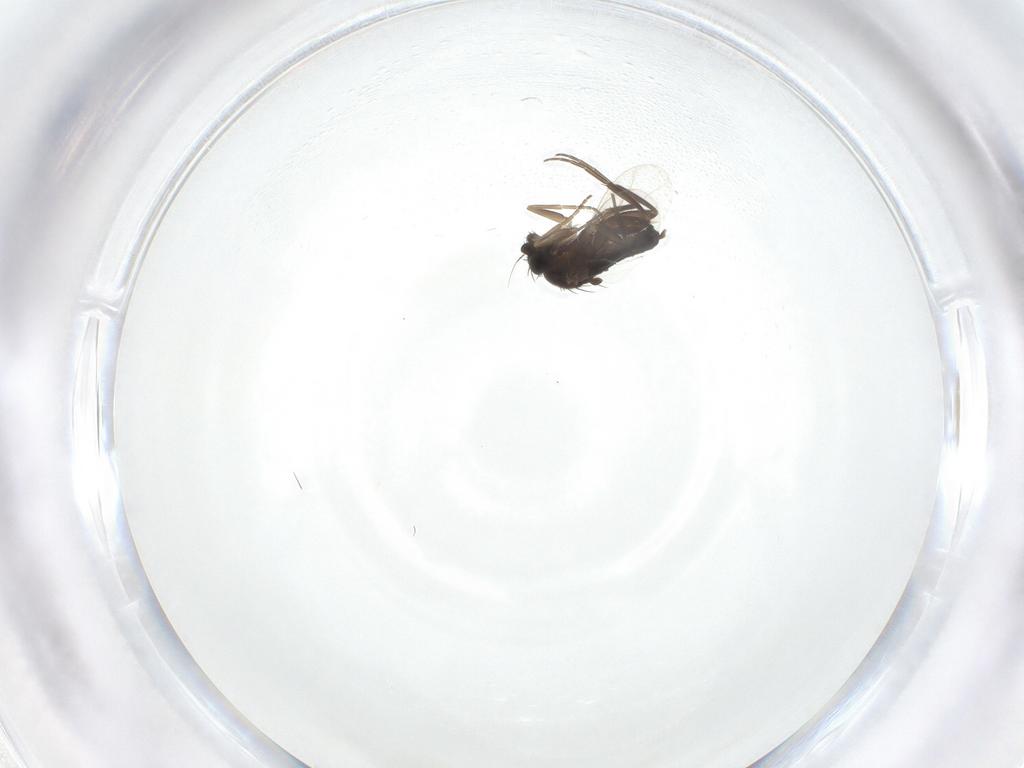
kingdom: Animalia
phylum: Arthropoda
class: Insecta
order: Diptera
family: Phoridae
